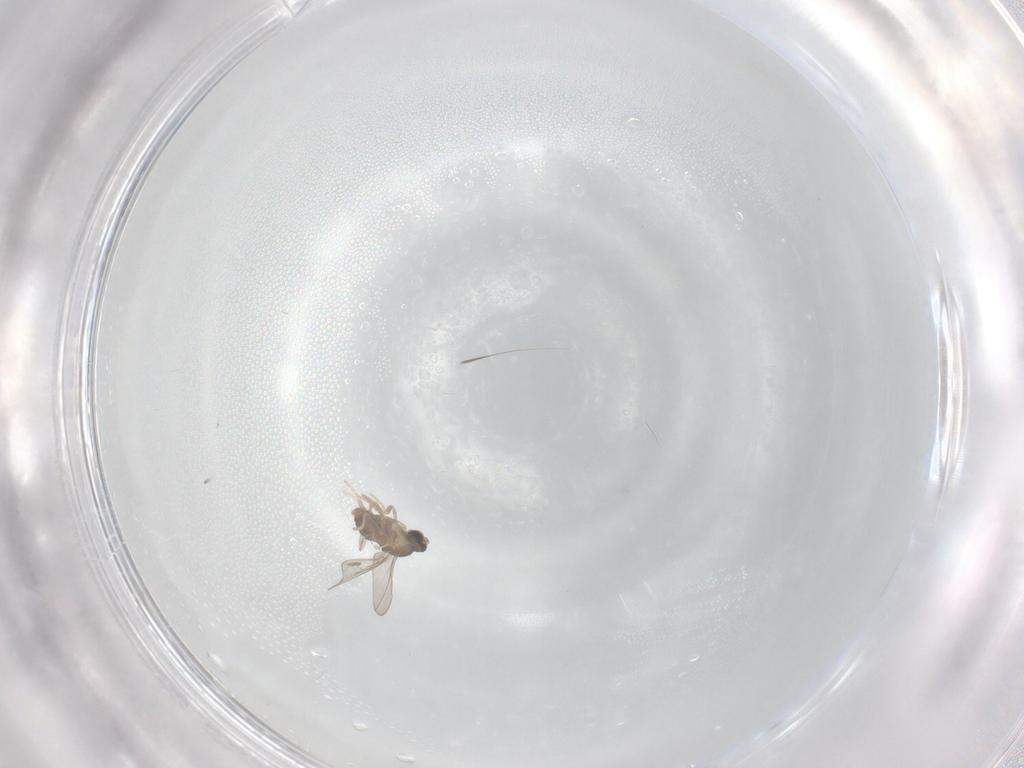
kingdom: Animalia
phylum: Arthropoda
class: Insecta
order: Diptera
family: Cecidomyiidae
